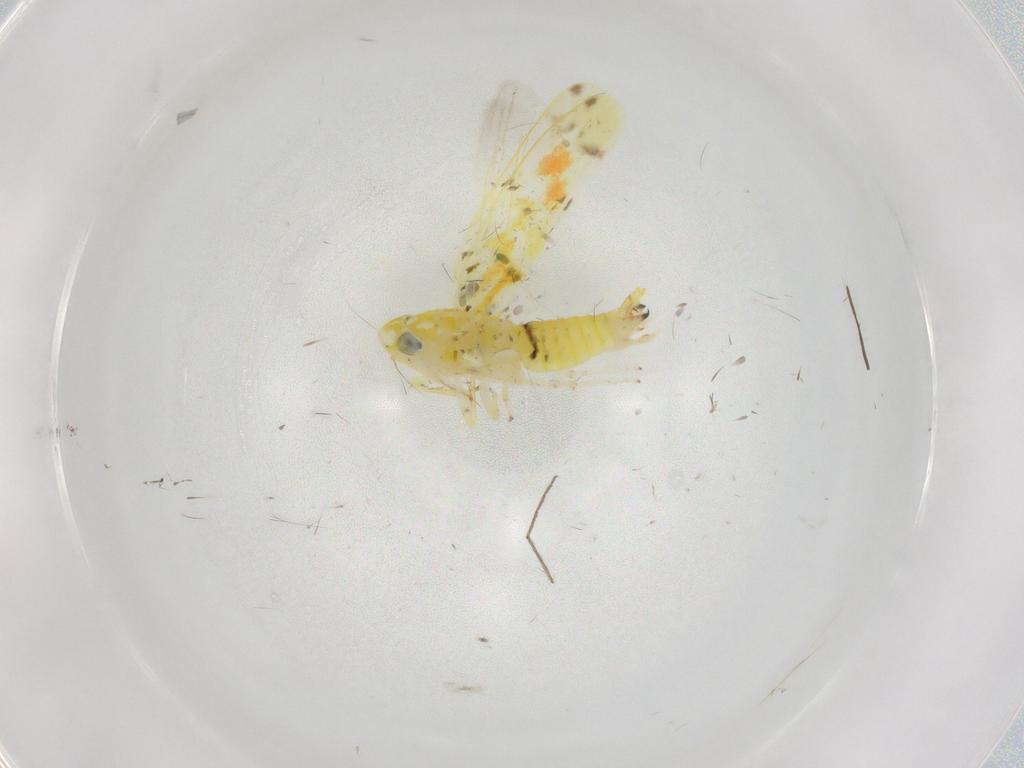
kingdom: Animalia
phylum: Arthropoda
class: Insecta
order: Hemiptera
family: Cicadellidae
